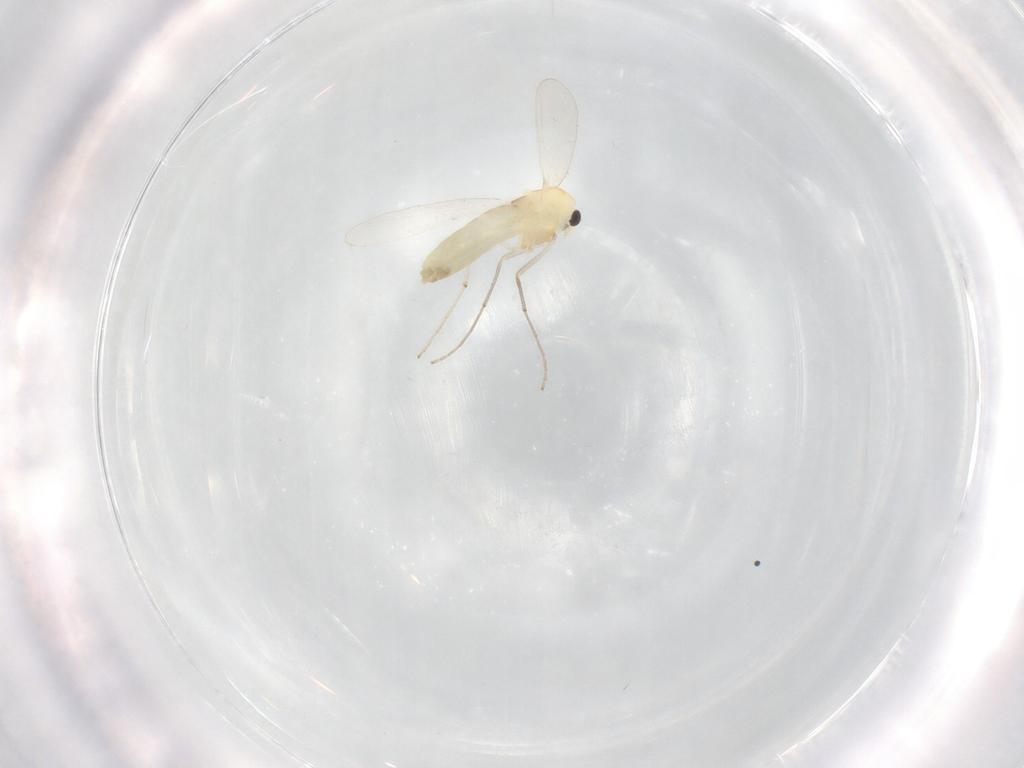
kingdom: Animalia
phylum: Arthropoda
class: Insecta
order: Diptera
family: Chironomidae
